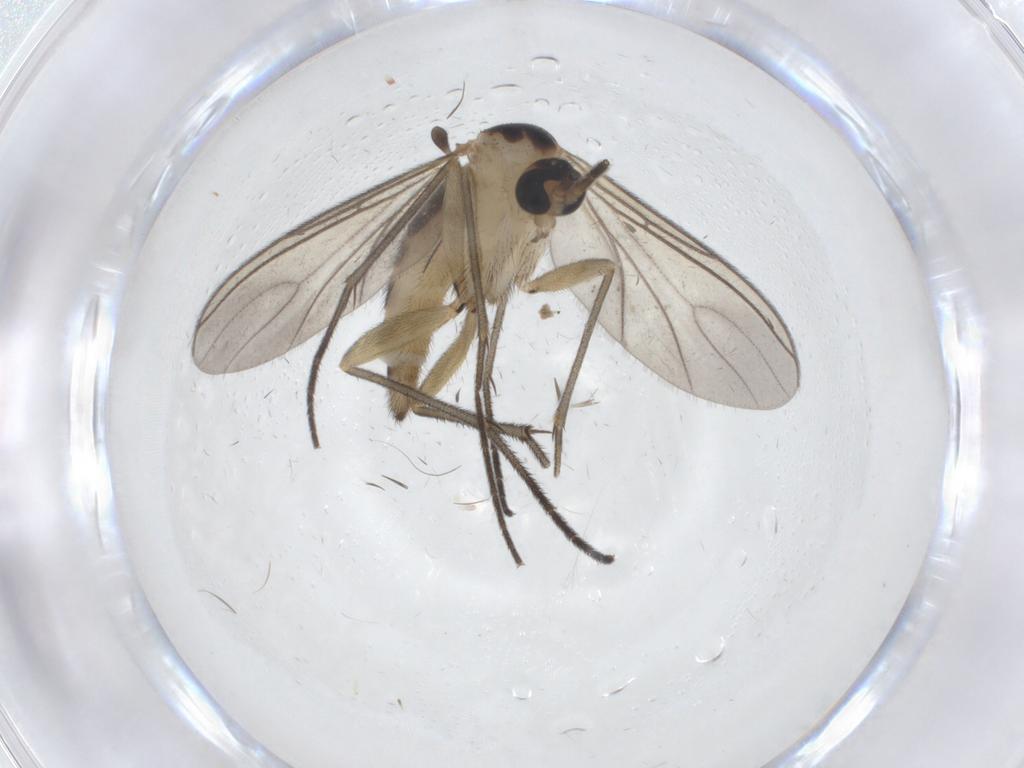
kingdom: Animalia
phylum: Arthropoda
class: Insecta
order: Diptera
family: Sciaridae
